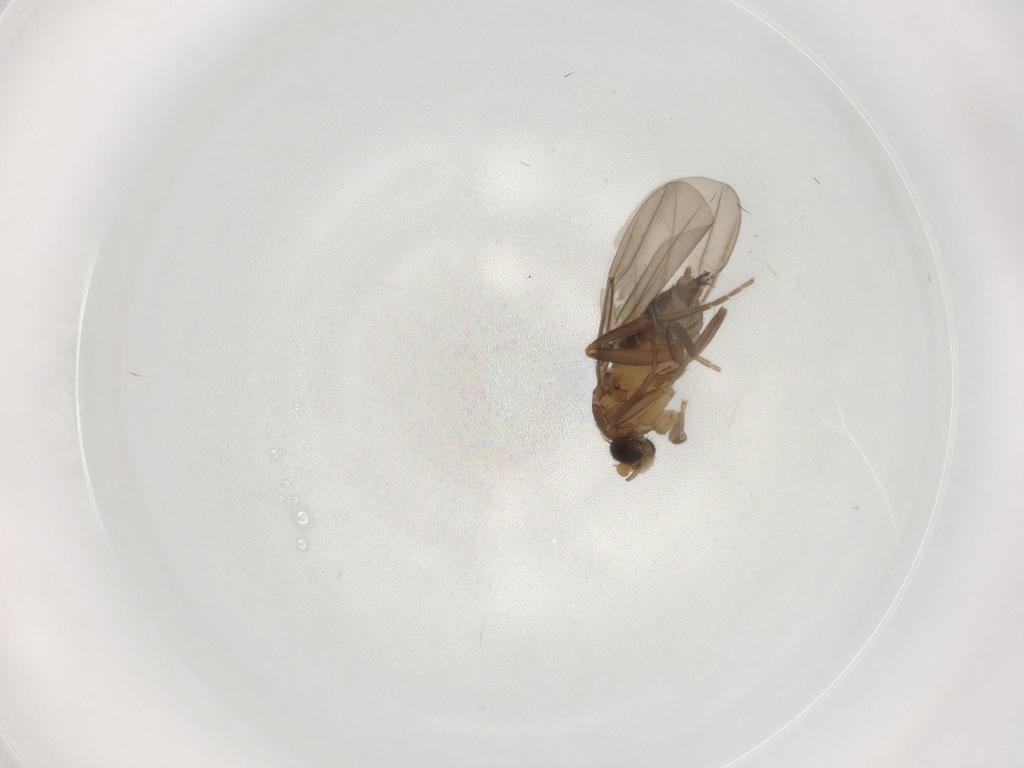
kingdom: Animalia
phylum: Arthropoda
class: Insecta
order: Diptera
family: Phoridae
